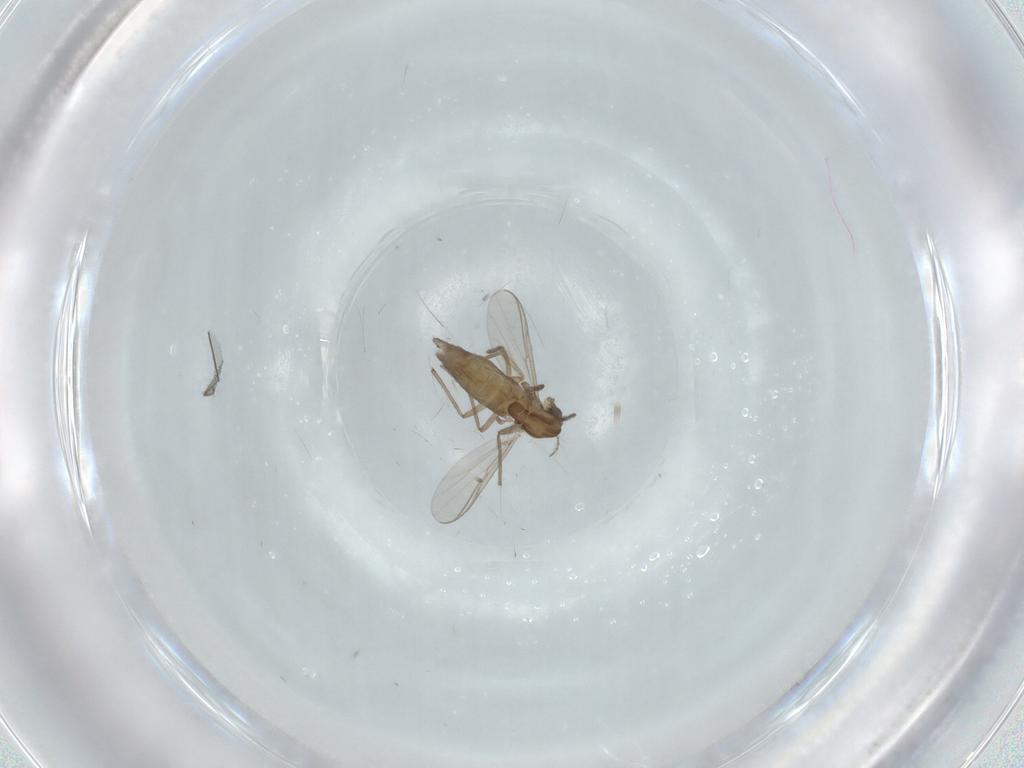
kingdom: Animalia
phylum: Arthropoda
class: Insecta
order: Diptera
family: Chironomidae
